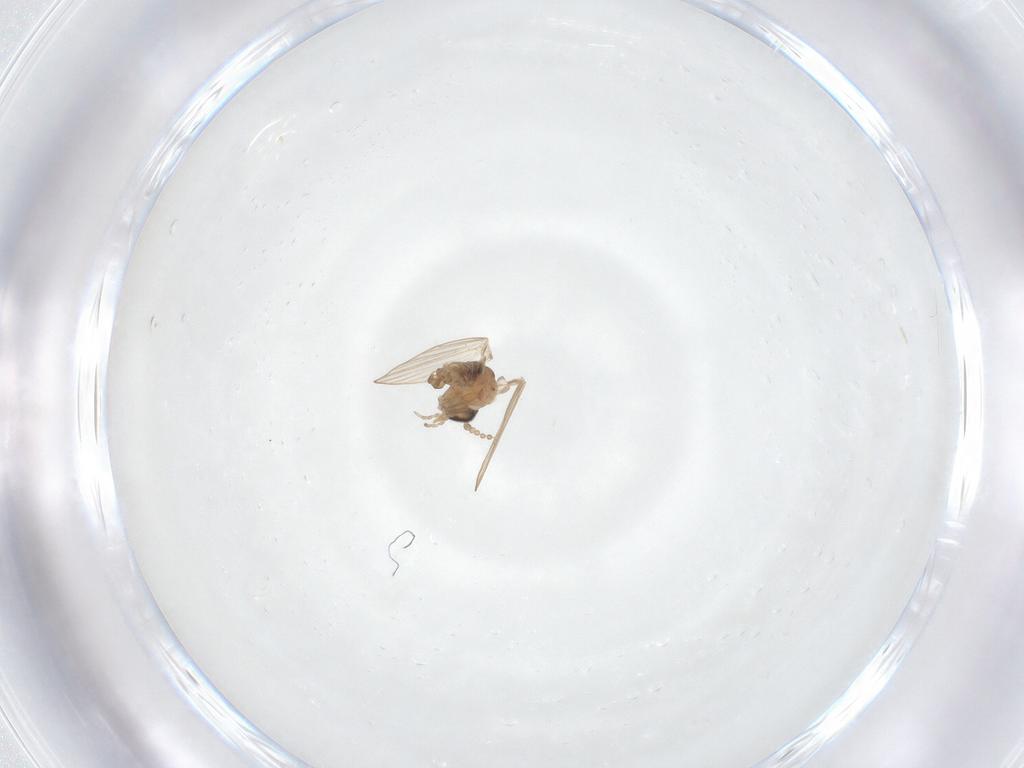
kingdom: Animalia
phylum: Arthropoda
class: Insecta
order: Diptera
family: Psychodidae
